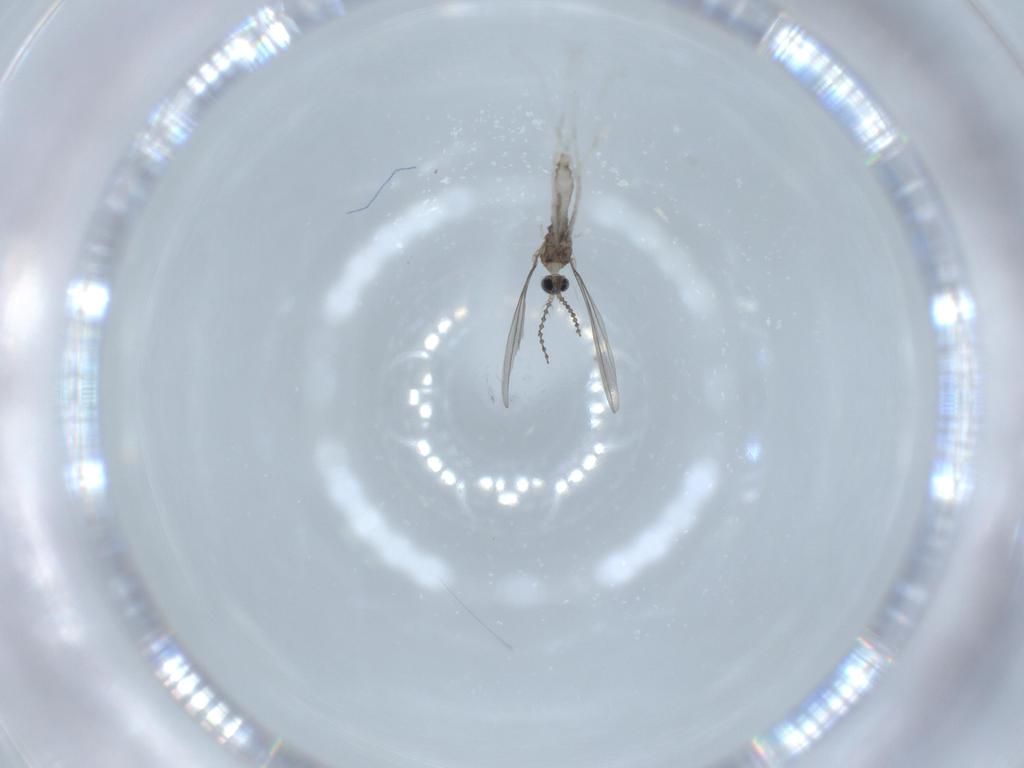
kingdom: Animalia
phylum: Arthropoda
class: Insecta
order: Diptera
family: Cecidomyiidae
